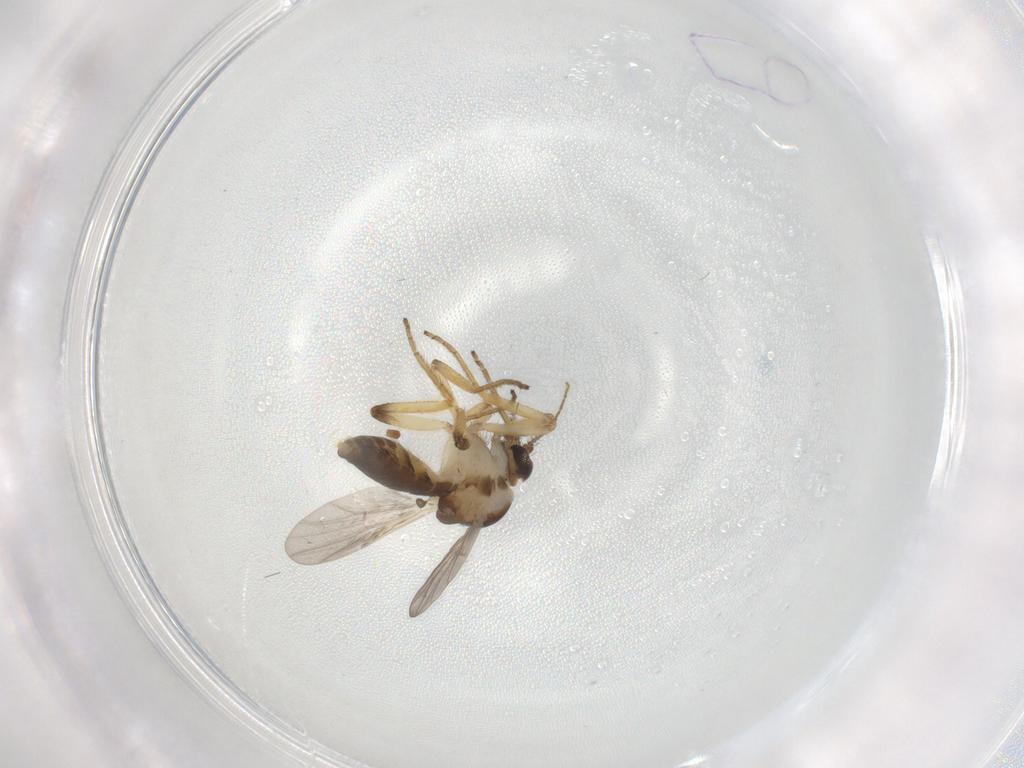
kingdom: Animalia
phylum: Arthropoda
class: Insecta
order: Diptera
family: Ceratopogonidae
